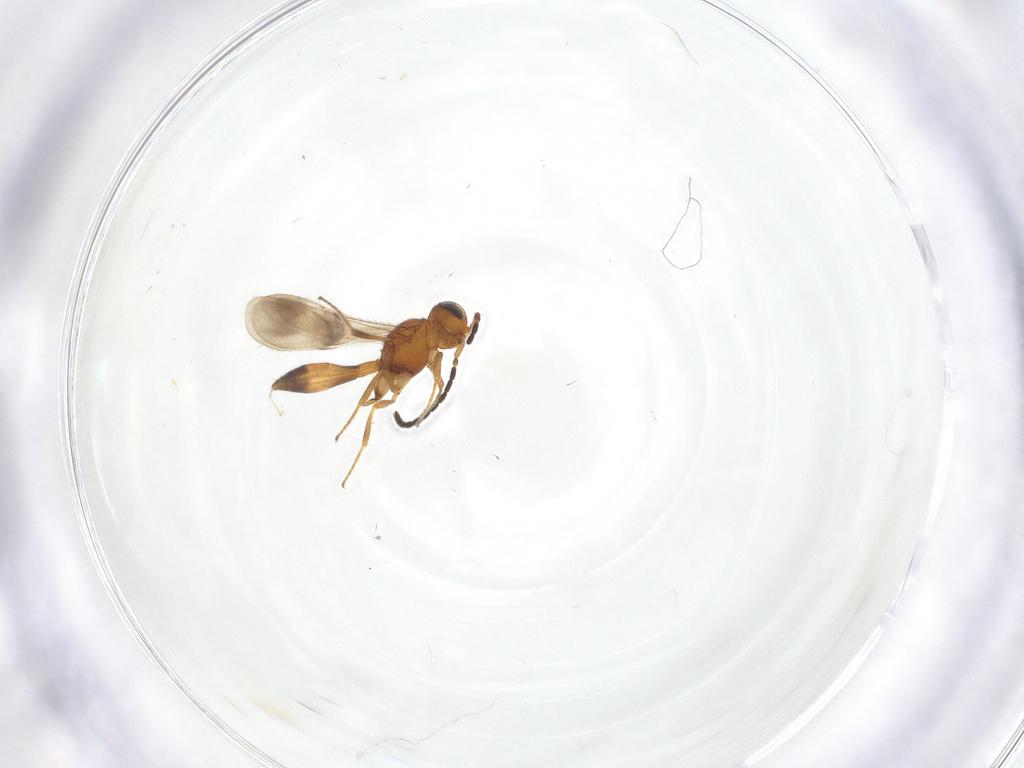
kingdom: Animalia
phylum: Arthropoda
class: Insecta
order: Hymenoptera
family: Scelionidae
